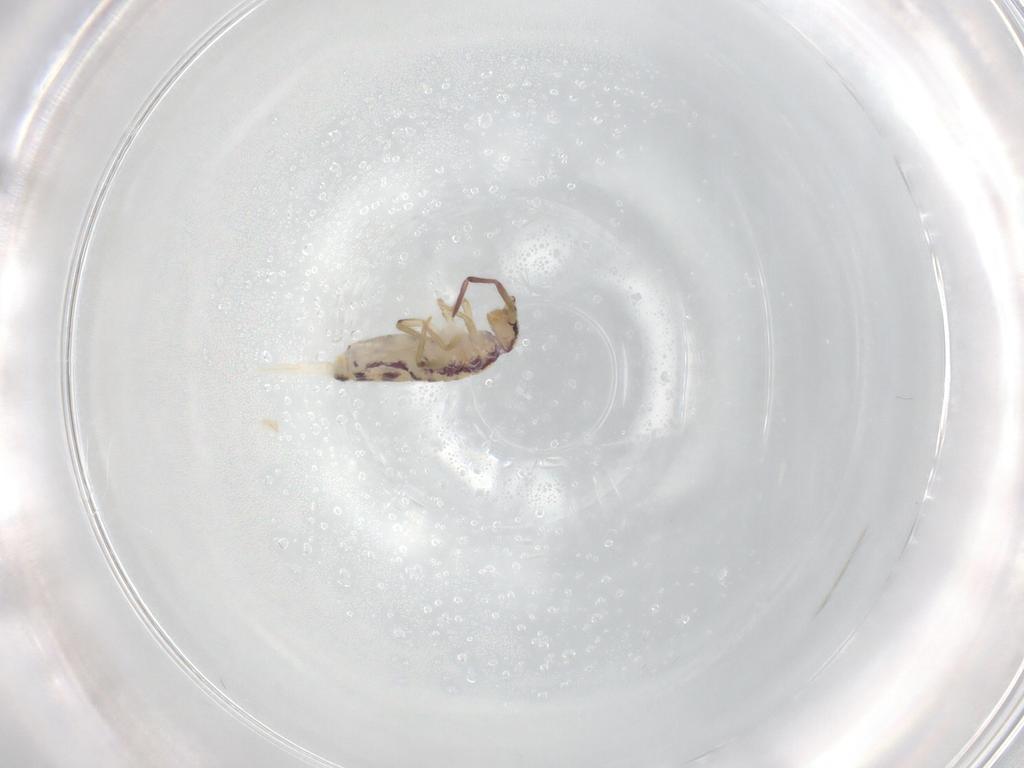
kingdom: Animalia
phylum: Arthropoda
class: Collembola
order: Entomobryomorpha
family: Entomobryidae
